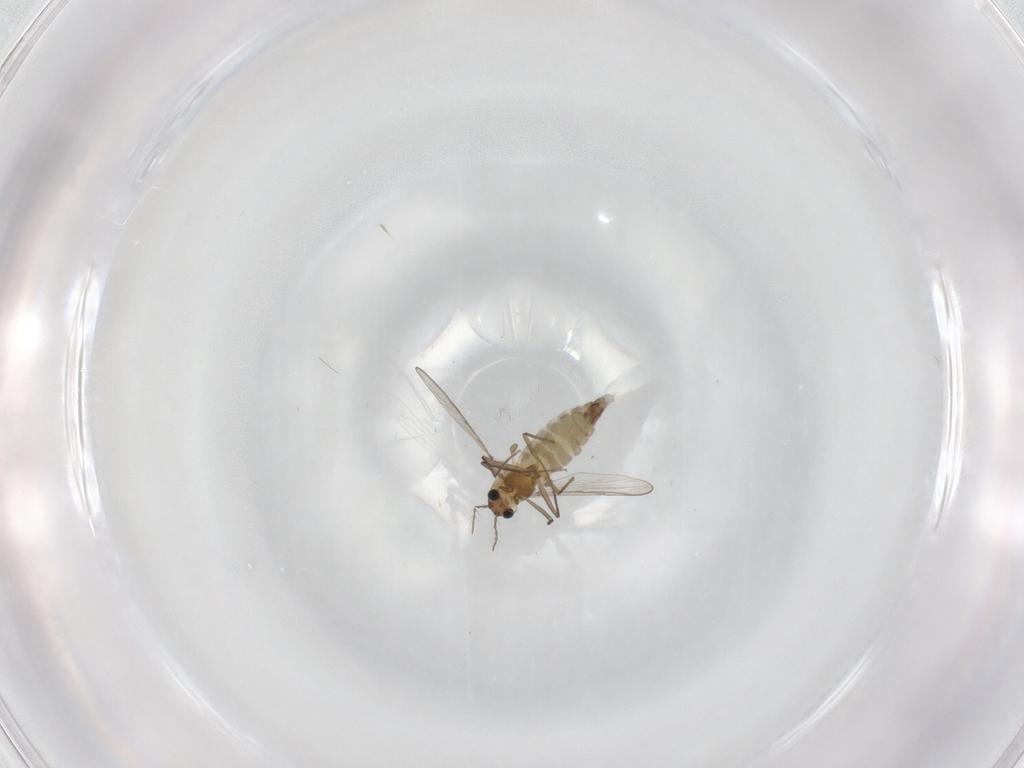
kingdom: Animalia
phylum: Arthropoda
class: Insecta
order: Diptera
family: Chironomidae
